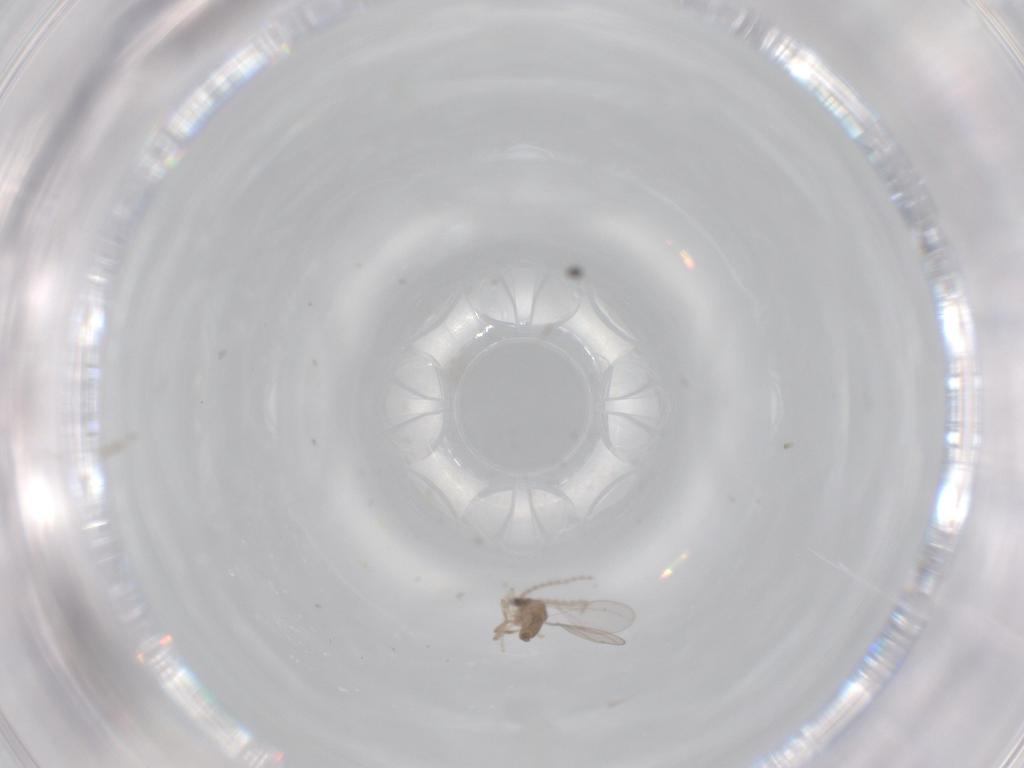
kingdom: Animalia
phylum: Arthropoda
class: Insecta
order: Diptera
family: Cecidomyiidae
